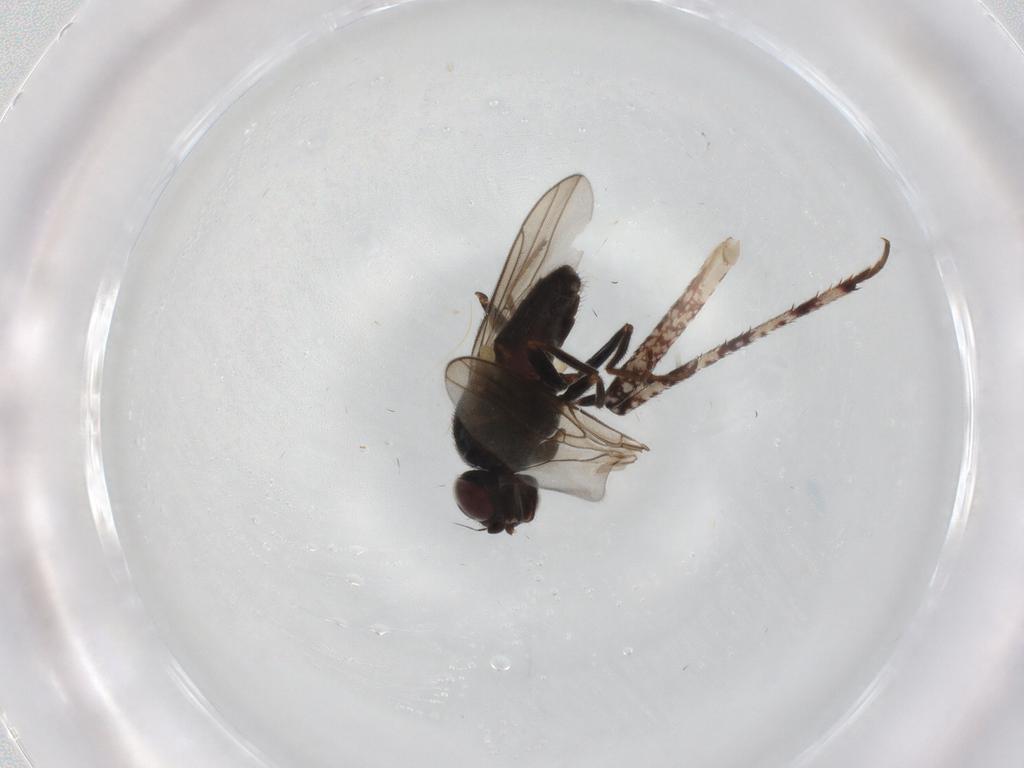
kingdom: Animalia
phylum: Arthropoda
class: Insecta
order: Diptera
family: Chloropidae
